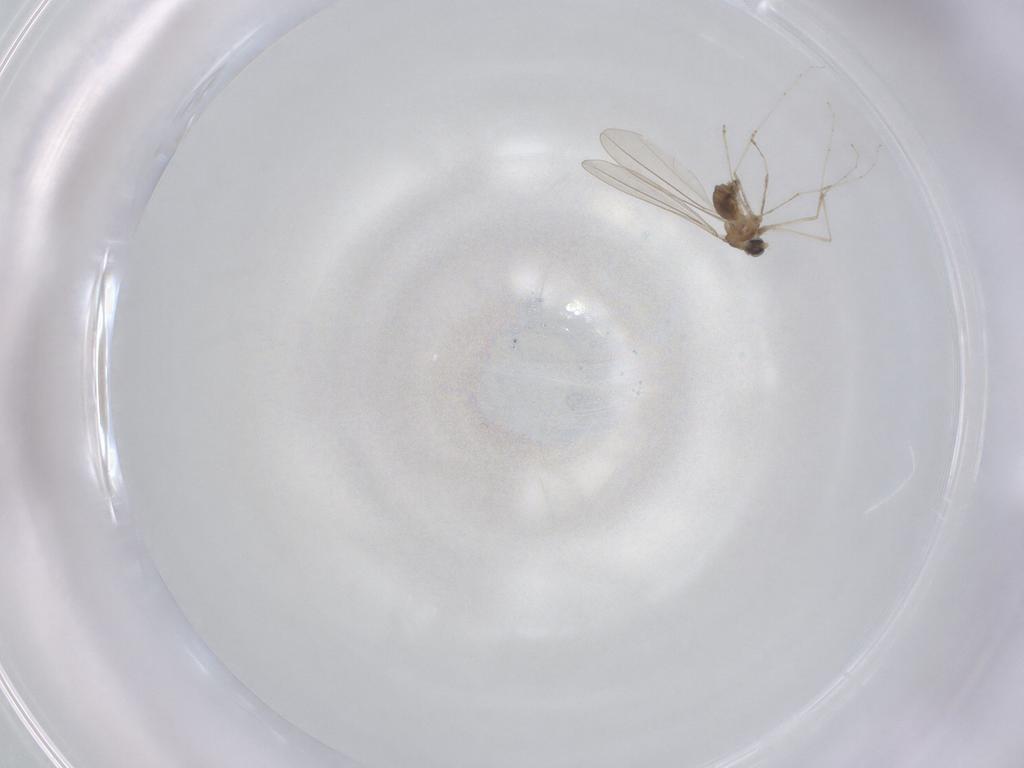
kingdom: Animalia
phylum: Arthropoda
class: Insecta
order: Diptera
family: Cecidomyiidae
